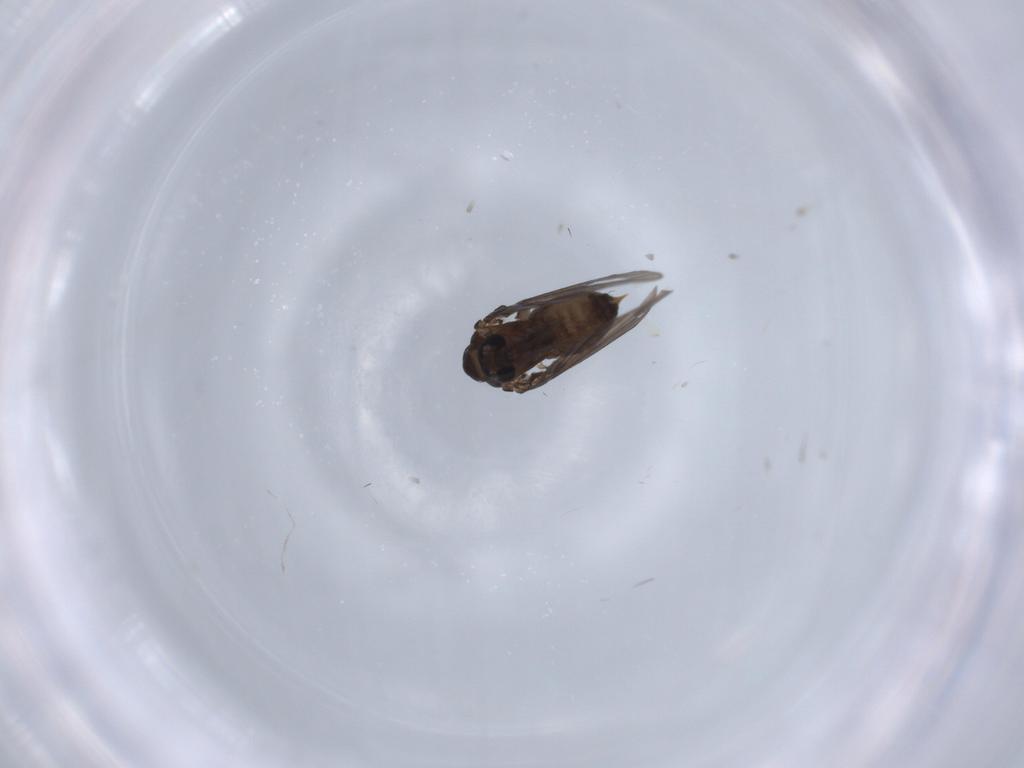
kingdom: Animalia
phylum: Arthropoda
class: Insecta
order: Diptera
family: Psychodidae
